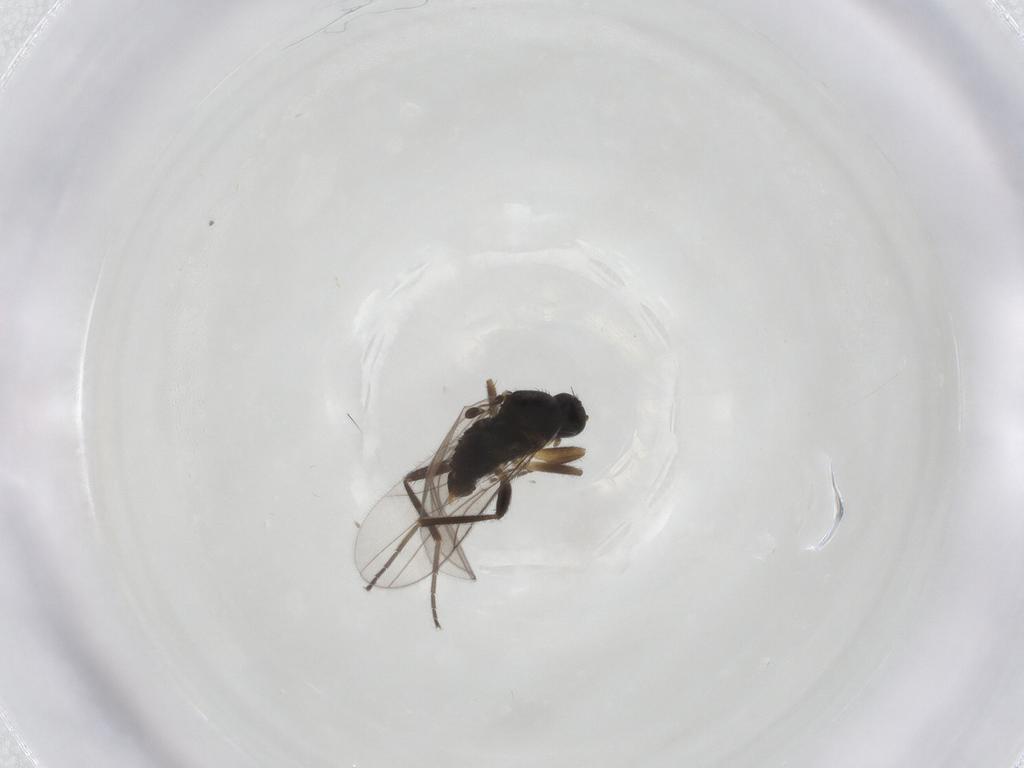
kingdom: Animalia
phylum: Arthropoda
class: Insecta
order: Diptera
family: Hybotidae
